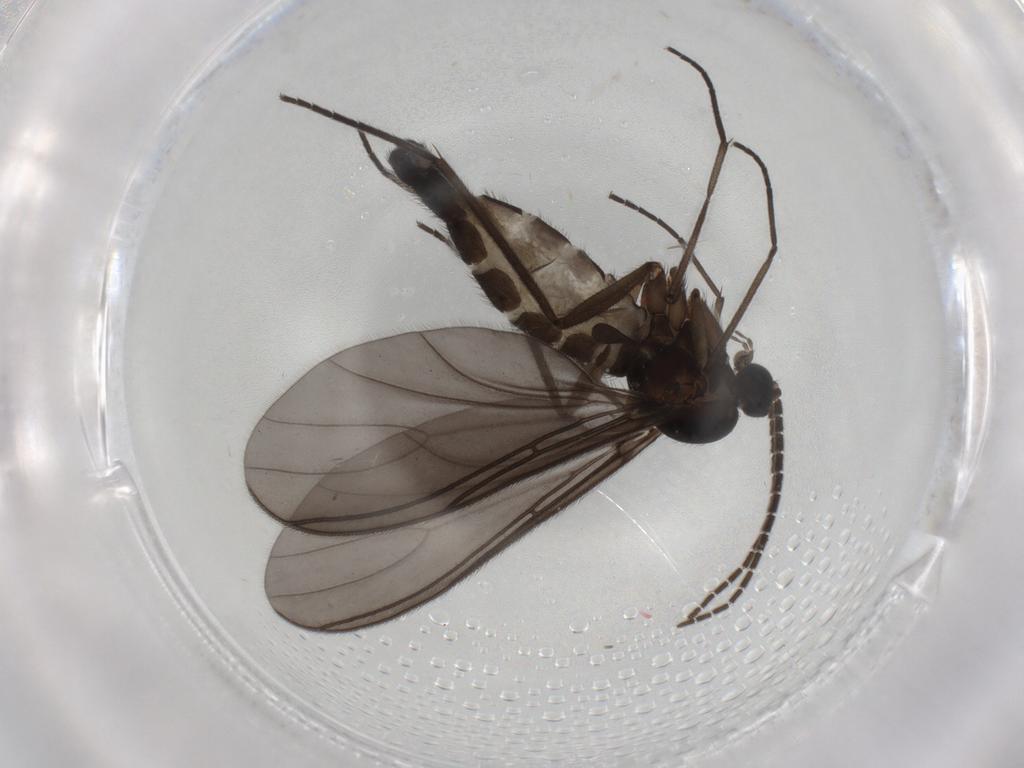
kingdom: Animalia
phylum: Arthropoda
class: Insecta
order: Diptera
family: Sciaridae
